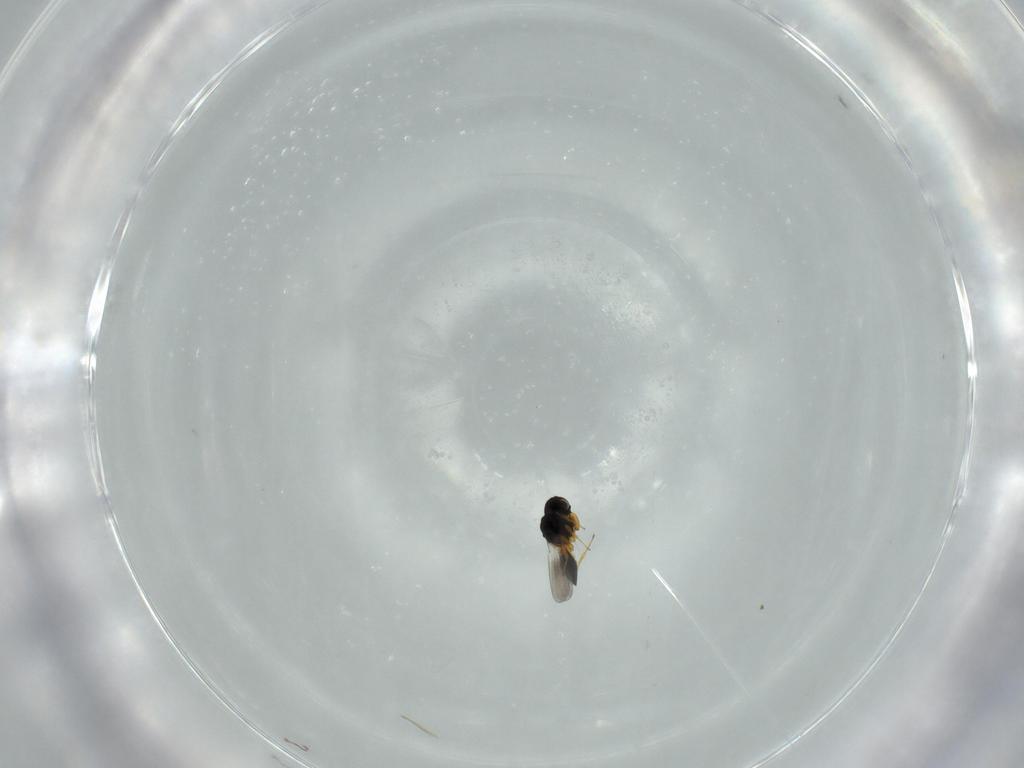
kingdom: Animalia
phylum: Arthropoda
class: Insecta
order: Hymenoptera
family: Platygastridae
